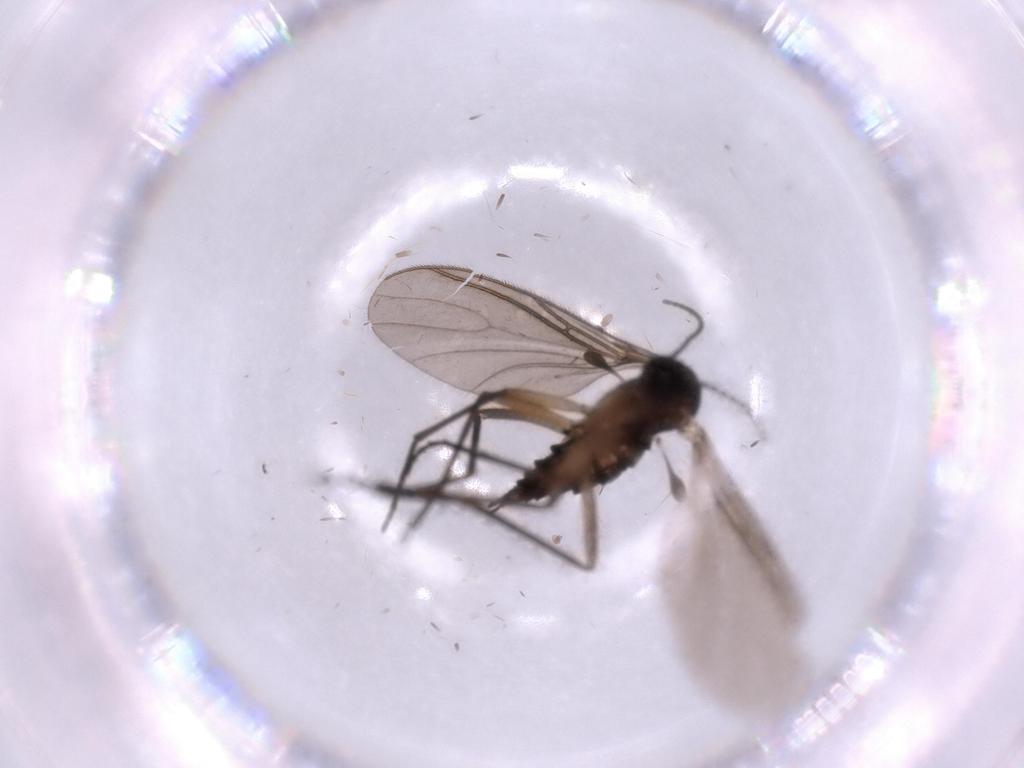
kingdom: Animalia
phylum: Arthropoda
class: Insecta
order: Diptera
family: Sciaridae
